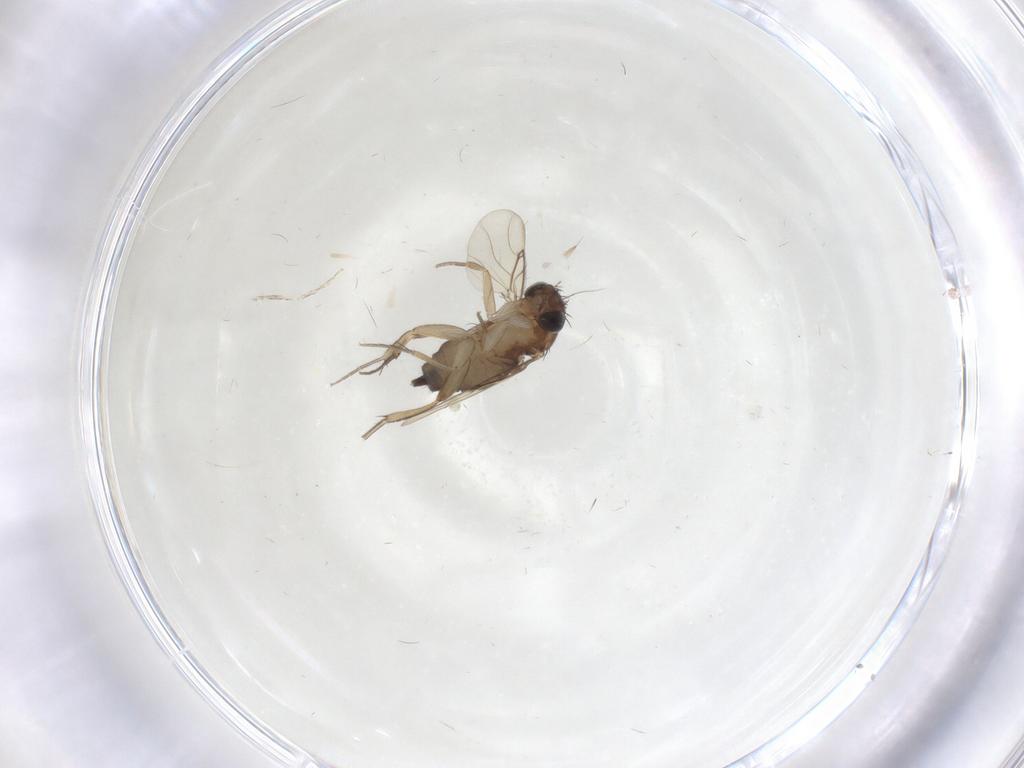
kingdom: Animalia
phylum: Arthropoda
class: Insecta
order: Diptera
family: Phoridae
